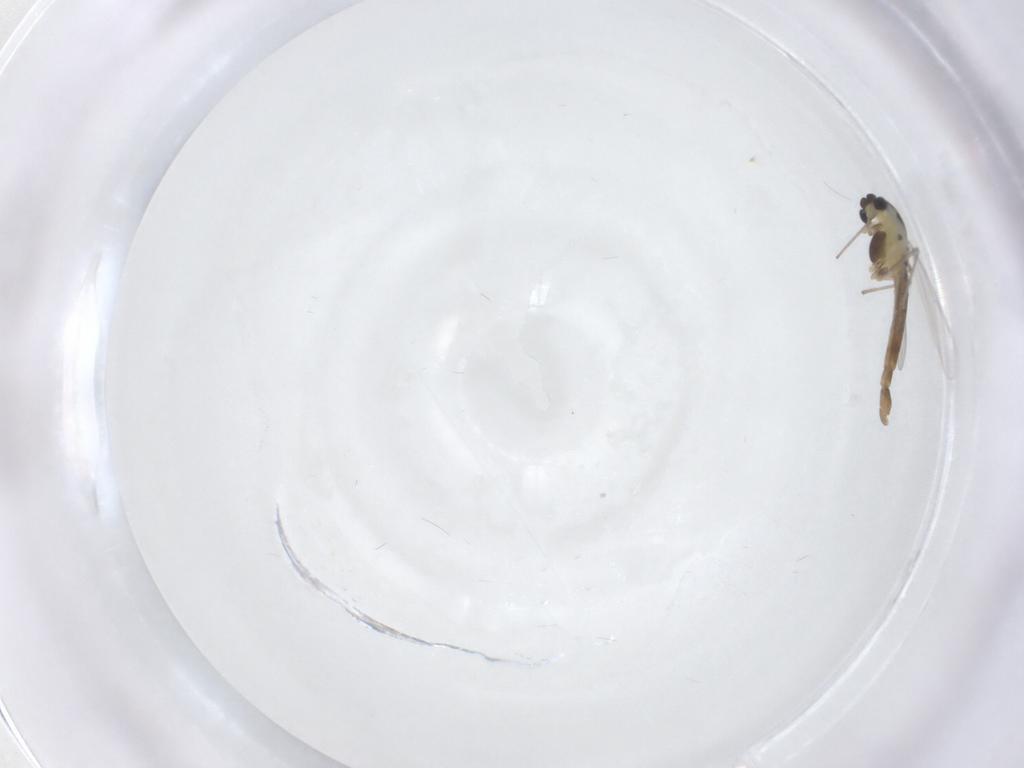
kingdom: Animalia
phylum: Arthropoda
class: Insecta
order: Diptera
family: Chironomidae
